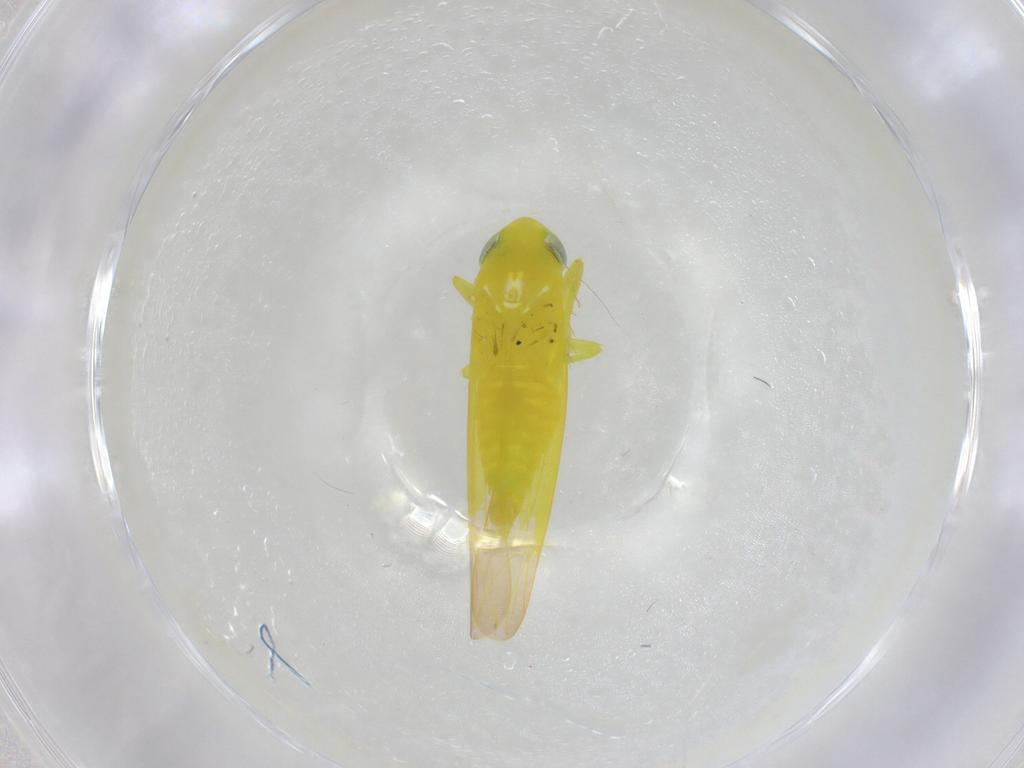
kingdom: Animalia
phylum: Arthropoda
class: Insecta
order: Hemiptera
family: Cicadellidae
